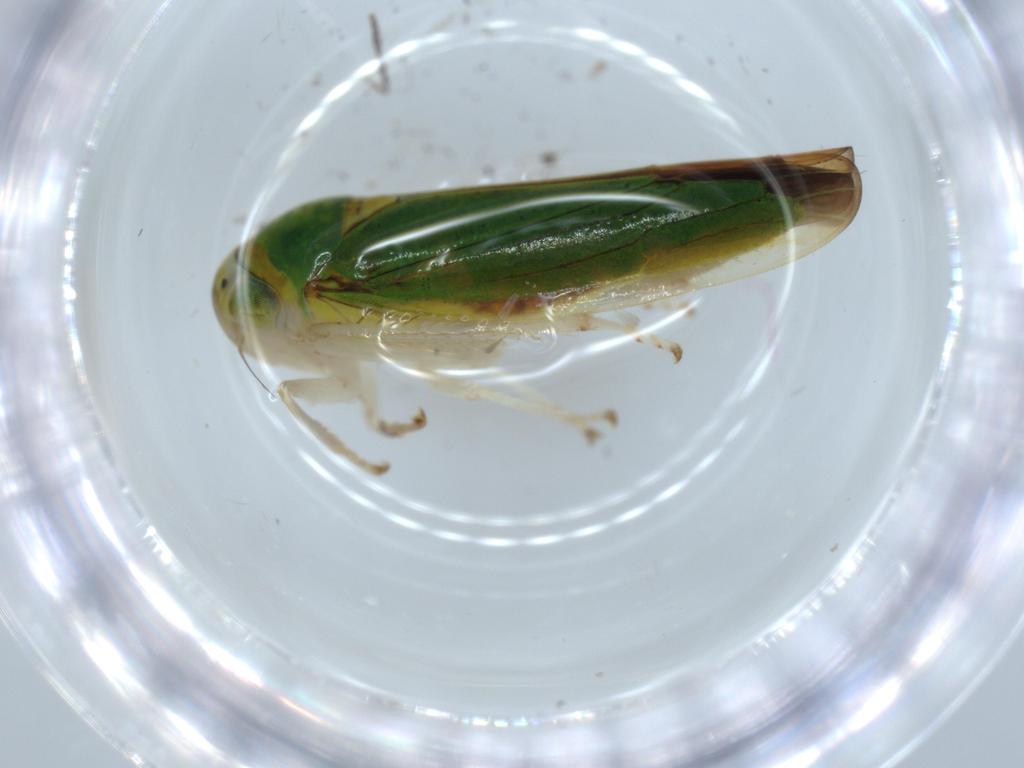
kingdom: Animalia
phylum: Arthropoda
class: Insecta
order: Hemiptera
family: Cicadellidae
